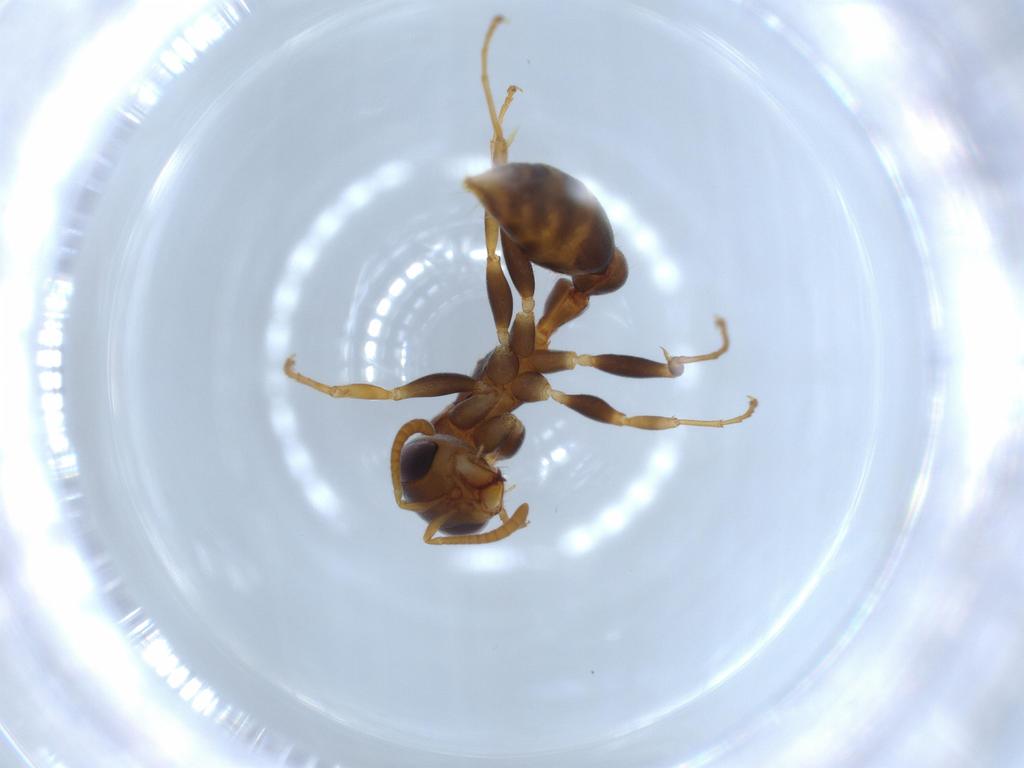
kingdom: Animalia
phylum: Arthropoda
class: Insecta
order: Hymenoptera
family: Formicidae
